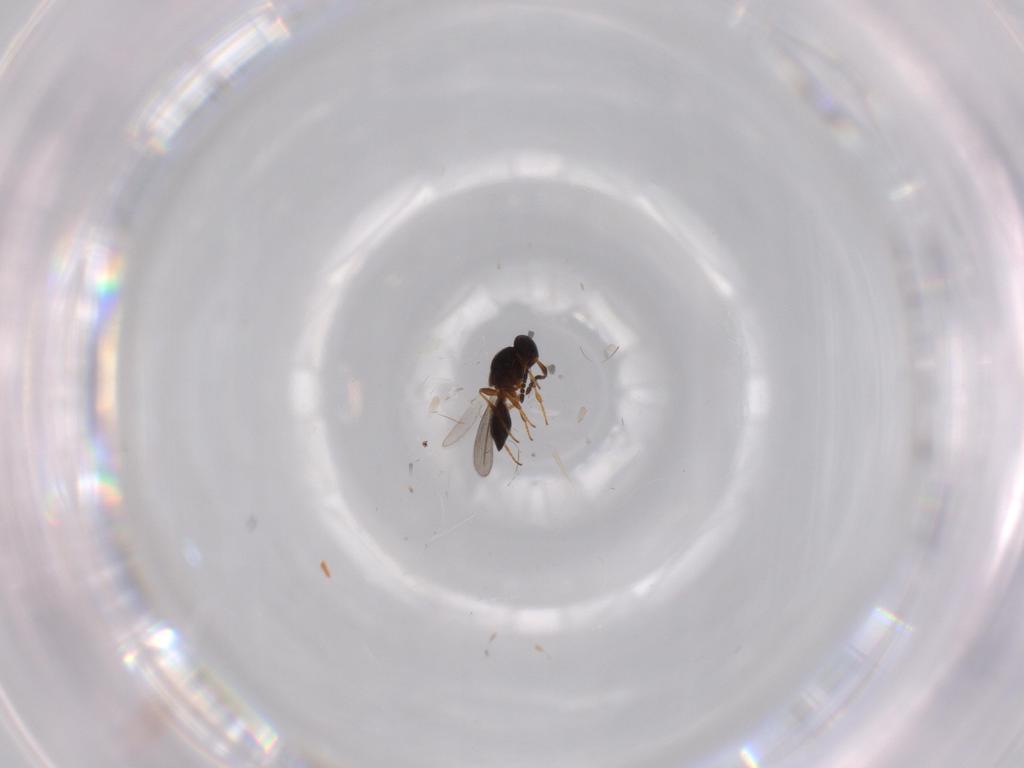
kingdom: Animalia
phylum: Arthropoda
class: Insecta
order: Hymenoptera
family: Platygastridae
